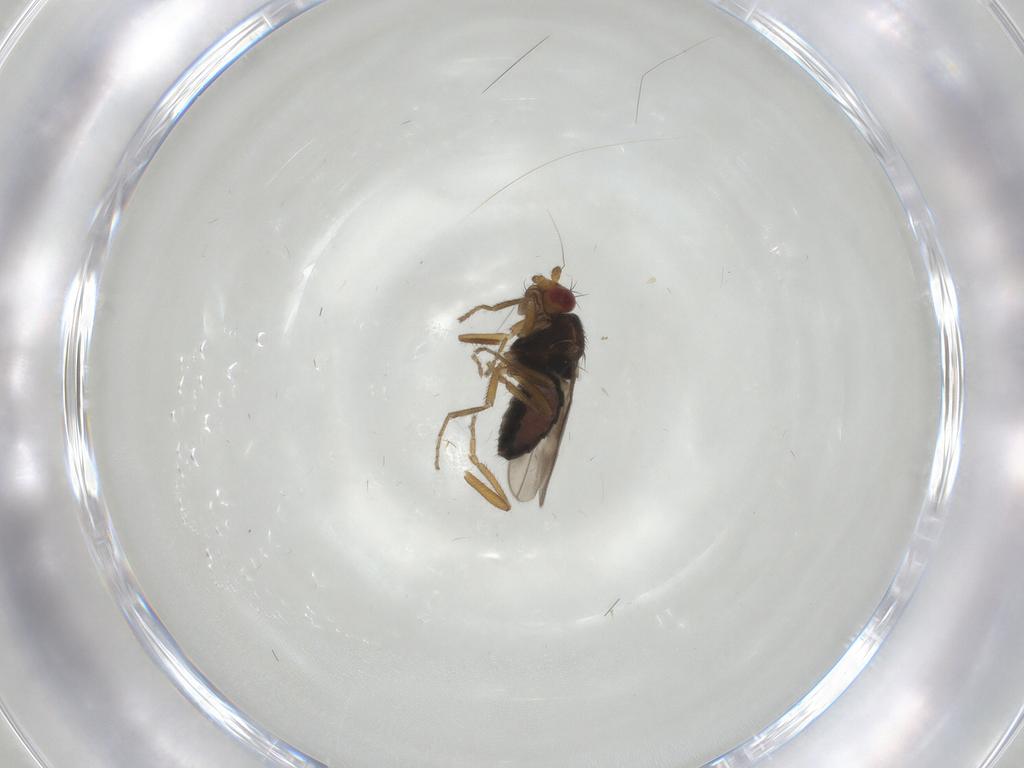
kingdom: Animalia
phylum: Arthropoda
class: Insecta
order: Diptera
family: Sphaeroceridae
